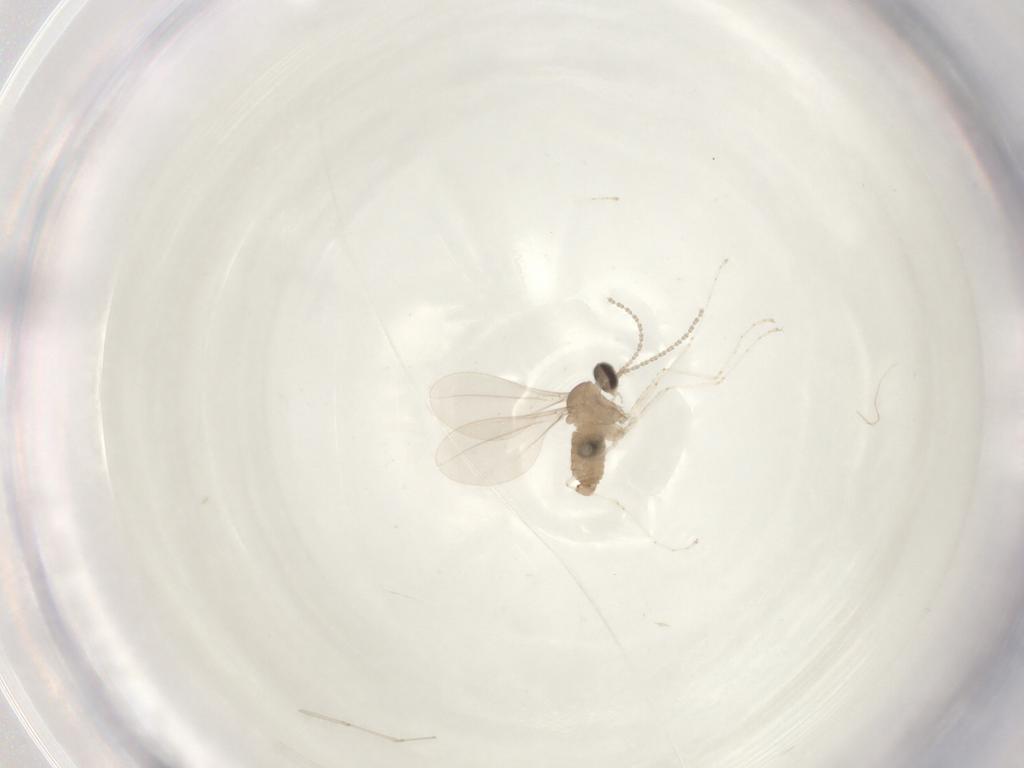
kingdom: Animalia
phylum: Arthropoda
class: Insecta
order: Diptera
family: Cecidomyiidae
